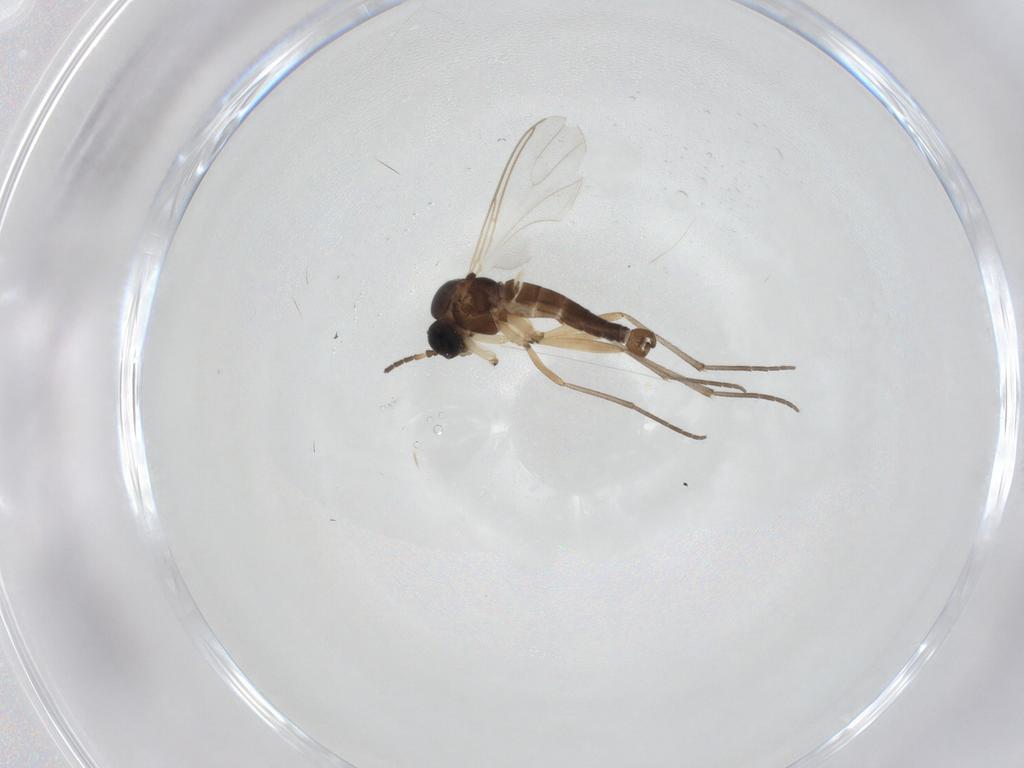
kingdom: Animalia
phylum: Arthropoda
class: Insecta
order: Diptera
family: Sciaridae
